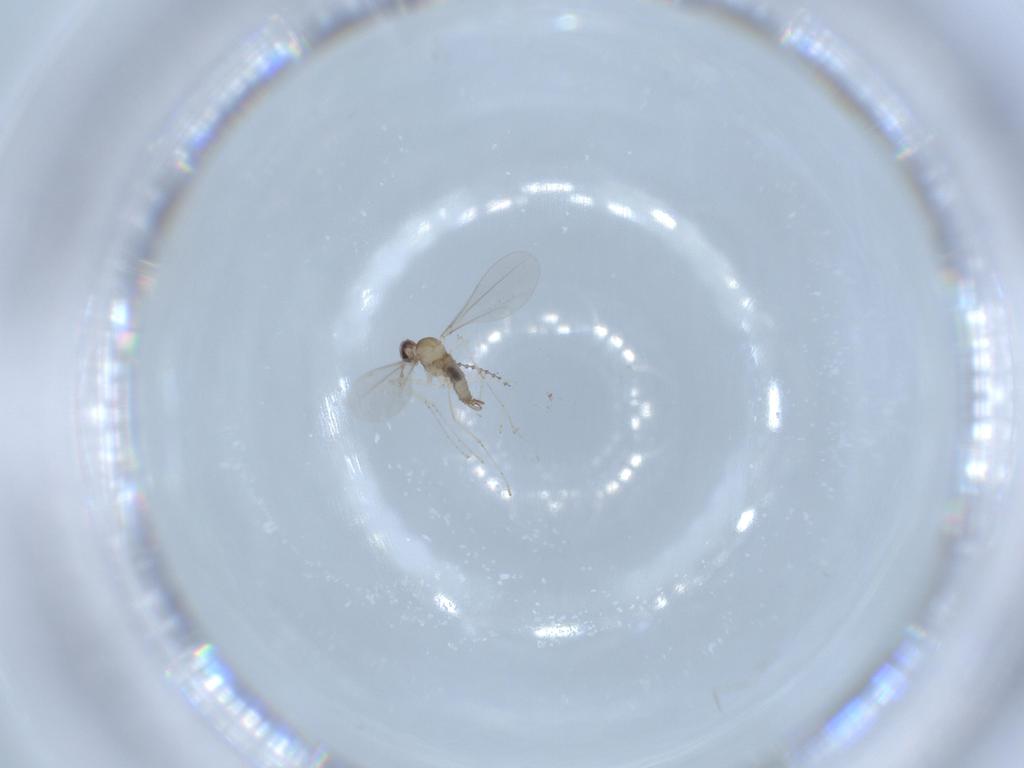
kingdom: Animalia
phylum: Arthropoda
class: Insecta
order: Diptera
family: Cecidomyiidae
